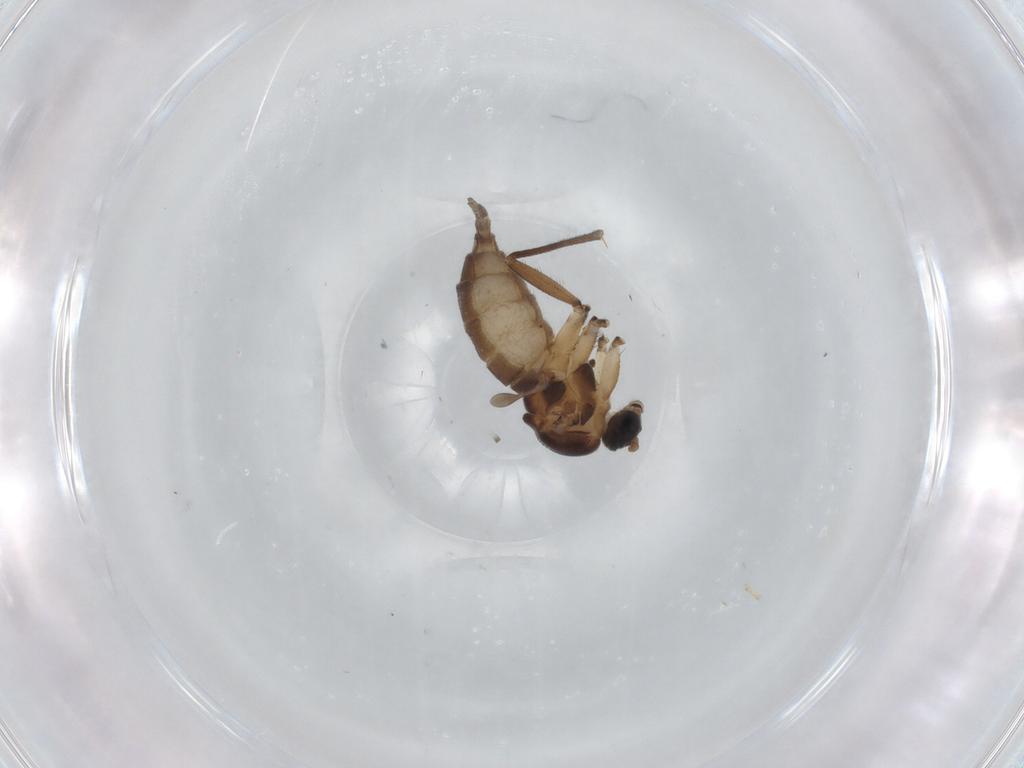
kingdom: Animalia
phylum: Arthropoda
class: Insecta
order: Diptera
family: Sciaridae
